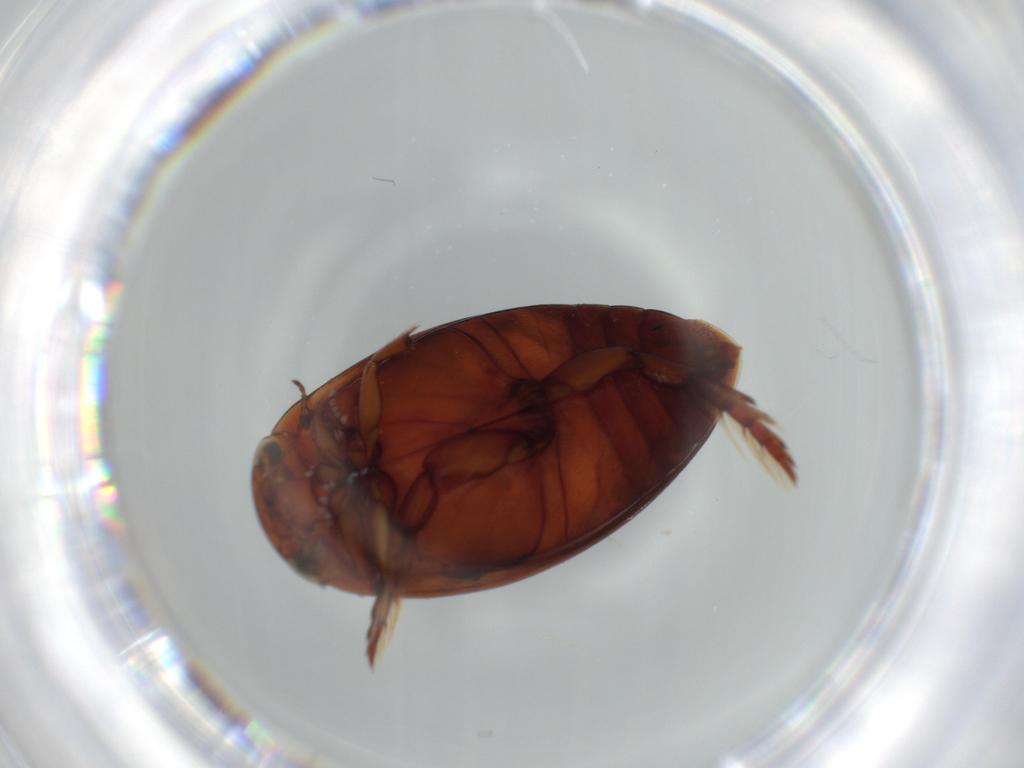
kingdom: Animalia
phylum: Arthropoda
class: Insecta
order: Coleoptera
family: Dytiscidae
